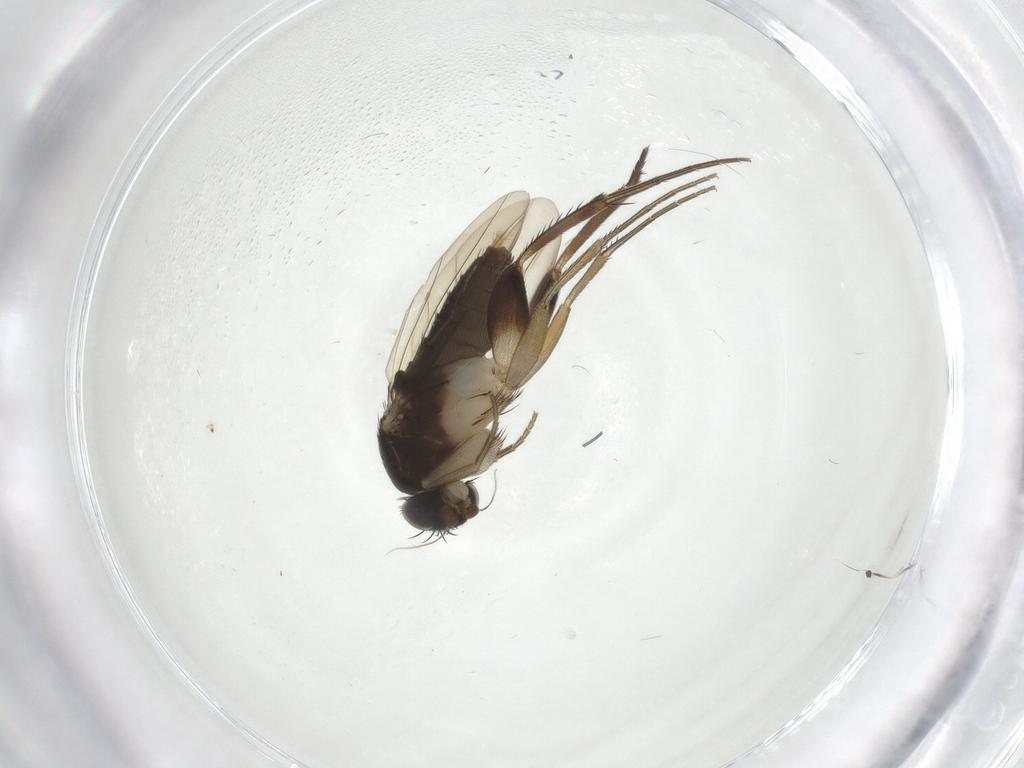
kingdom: Animalia
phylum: Arthropoda
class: Insecta
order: Diptera
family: Phoridae
